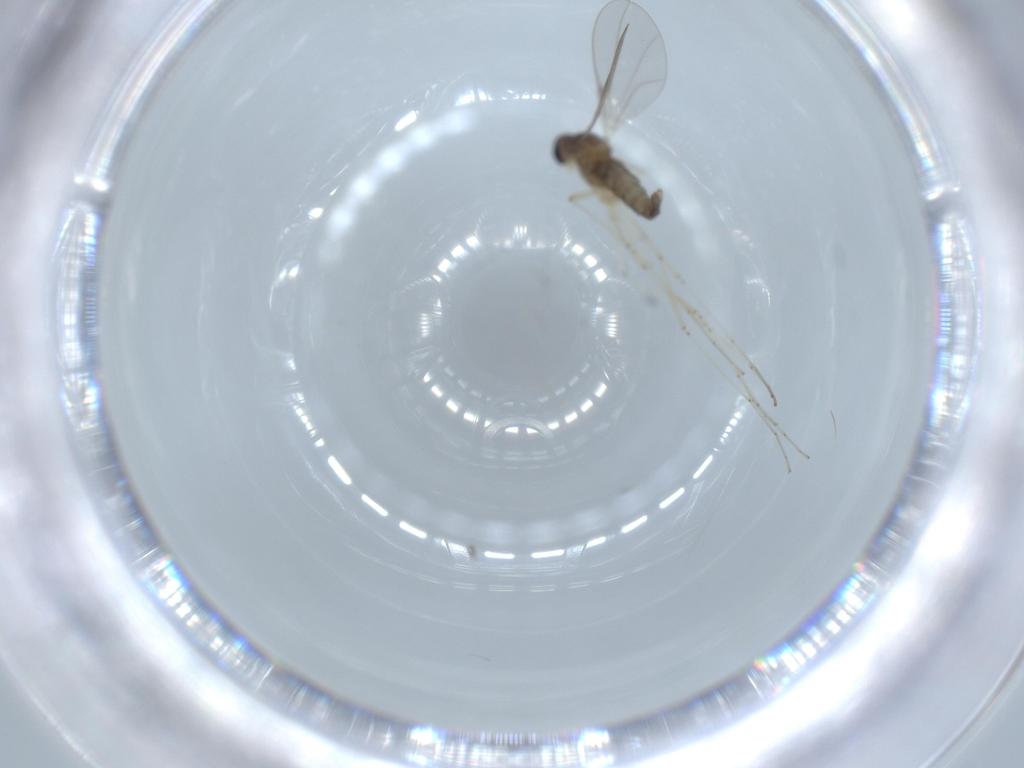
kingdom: Animalia
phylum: Arthropoda
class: Insecta
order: Diptera
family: Cecidomyiidae
